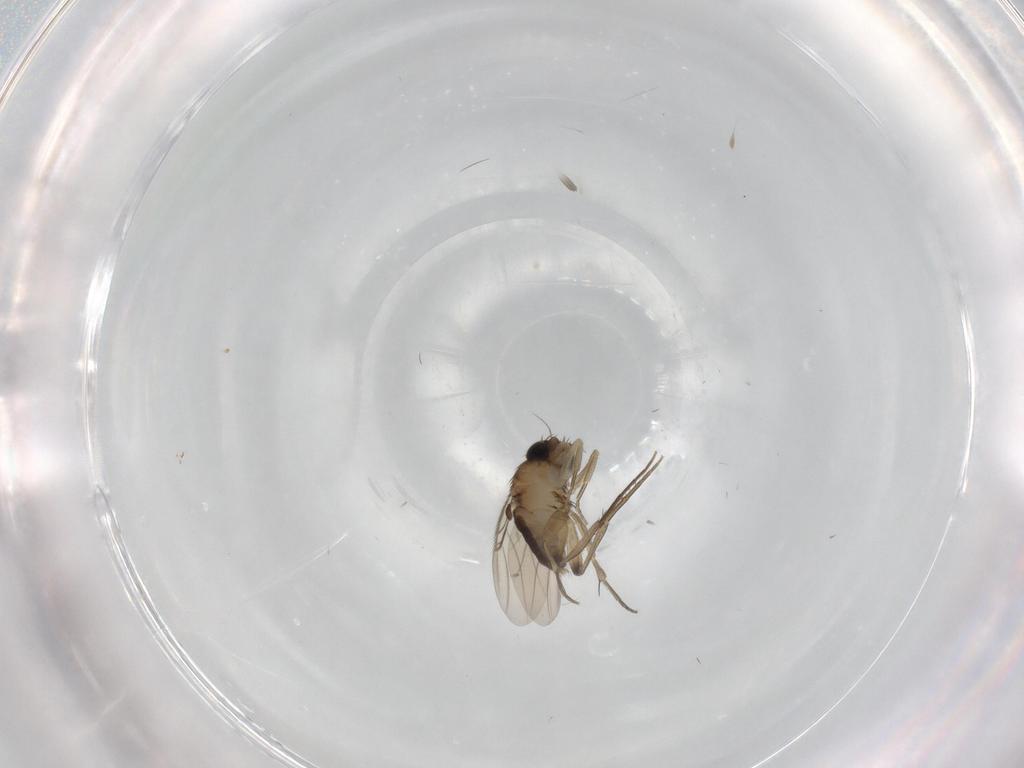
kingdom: Animalia
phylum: Arthropoda
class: Insecta
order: Diptera
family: Phoridae
